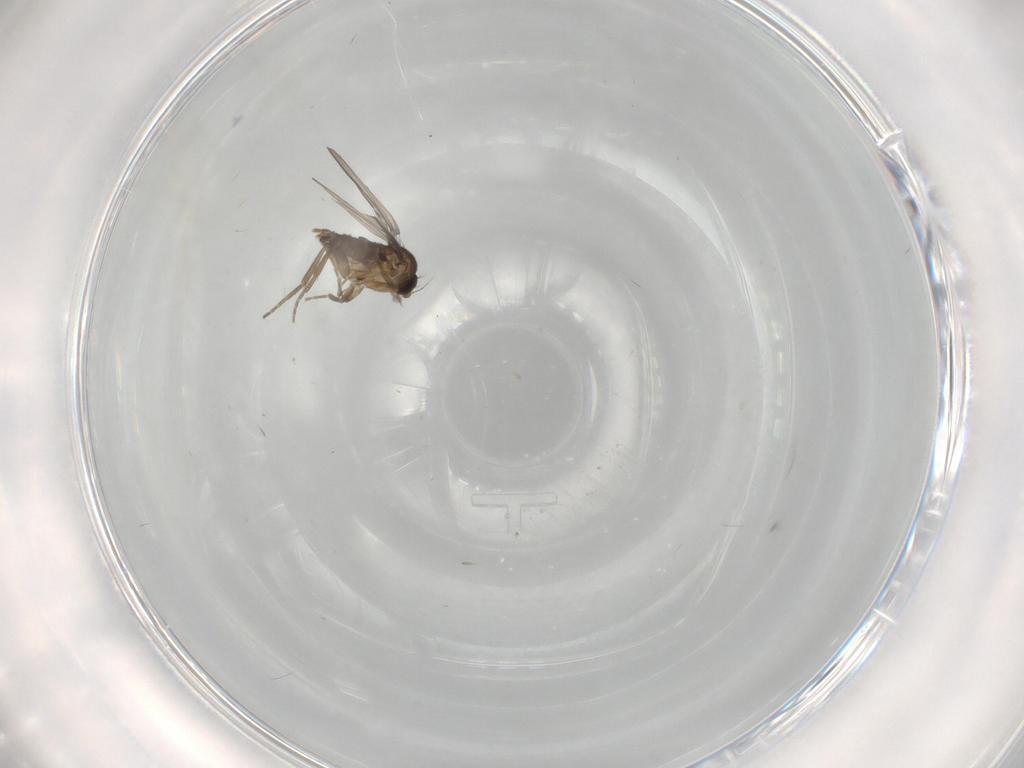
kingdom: Animalia
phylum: Arthropoda
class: Insecta
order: Diptera
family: Phoridae
